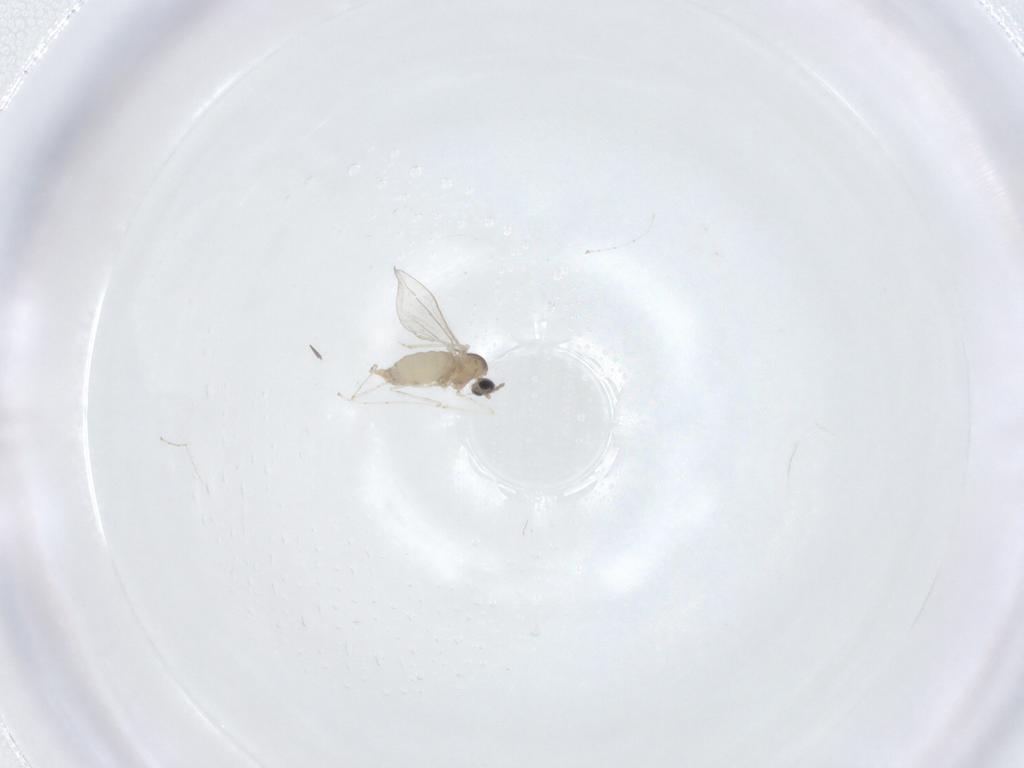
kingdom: Animalia
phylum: Arthropoda
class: Insecta
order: Diptera
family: Cecidomyiidae
